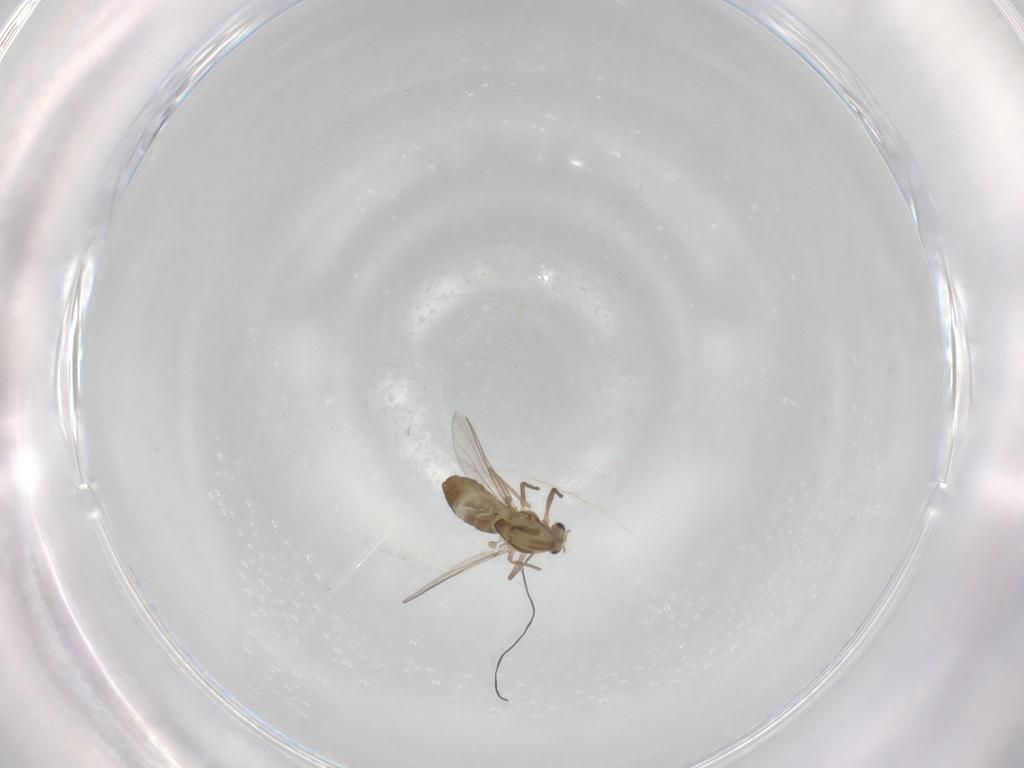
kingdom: Animalia
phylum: Arthropoda
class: Insecta
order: Diptera
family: Chironomidae
